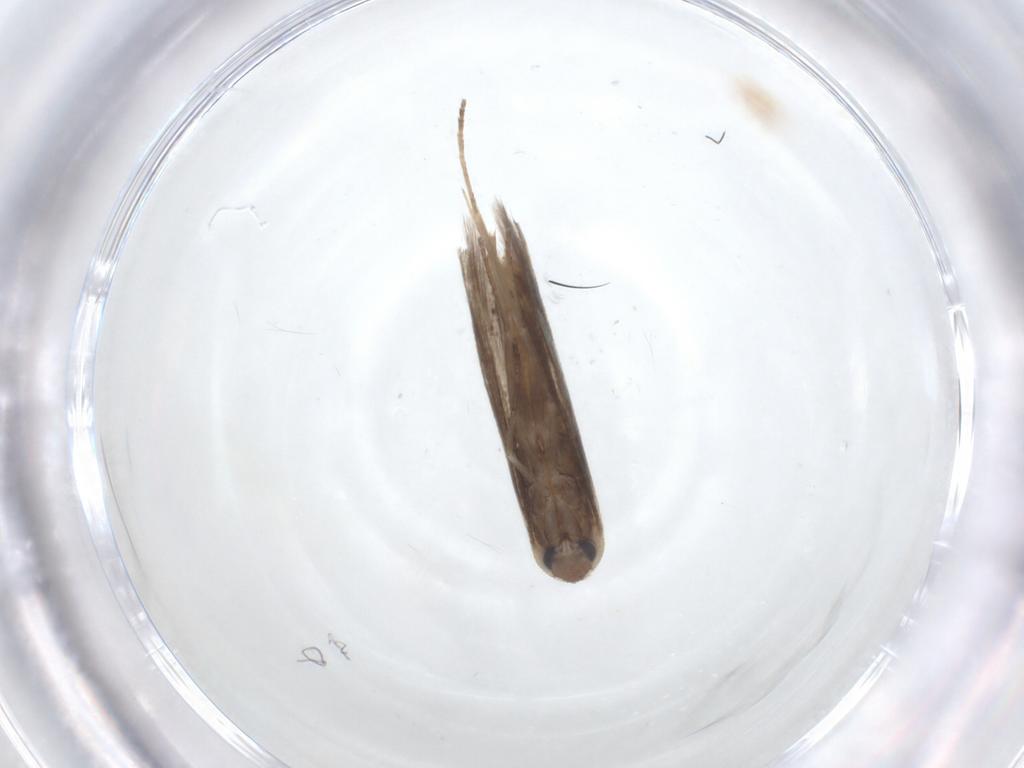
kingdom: Animalia
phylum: Arthropoda
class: Insecta
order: Lepidoptera
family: Lyonetiidae
